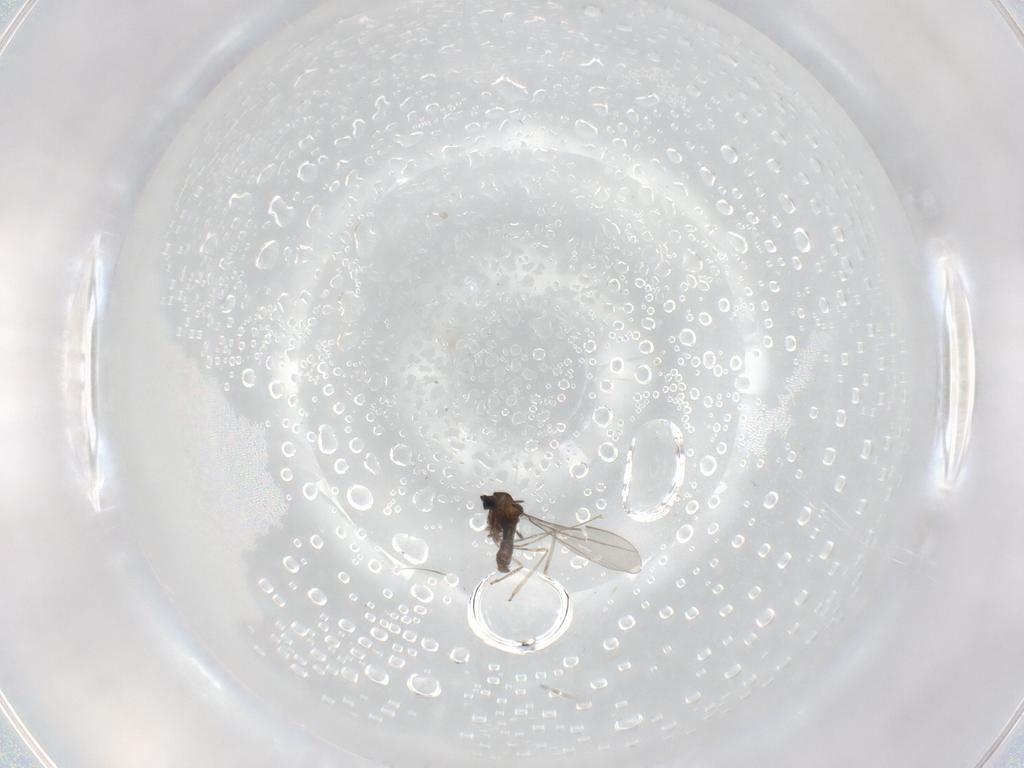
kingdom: Animalia
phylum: Arthropoda
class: Insecta
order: Diptera
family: Cecidomyiidae
